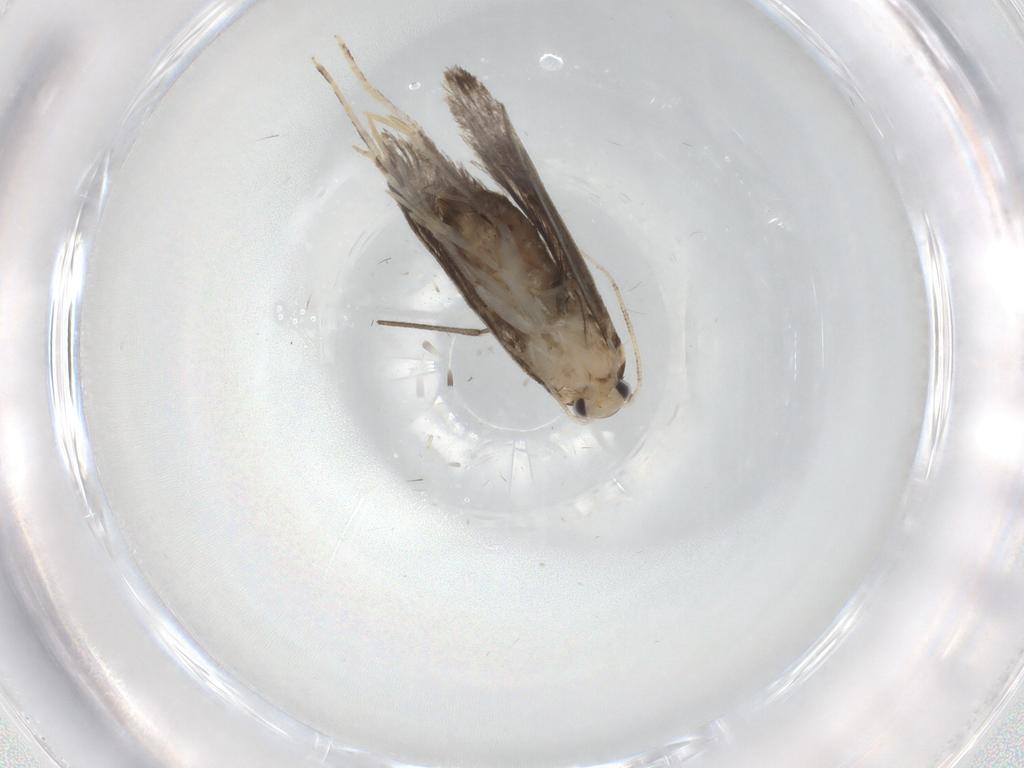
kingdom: Animalia
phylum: Arthropoda
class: Insecta
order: Lepidoptera
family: Tineidae
